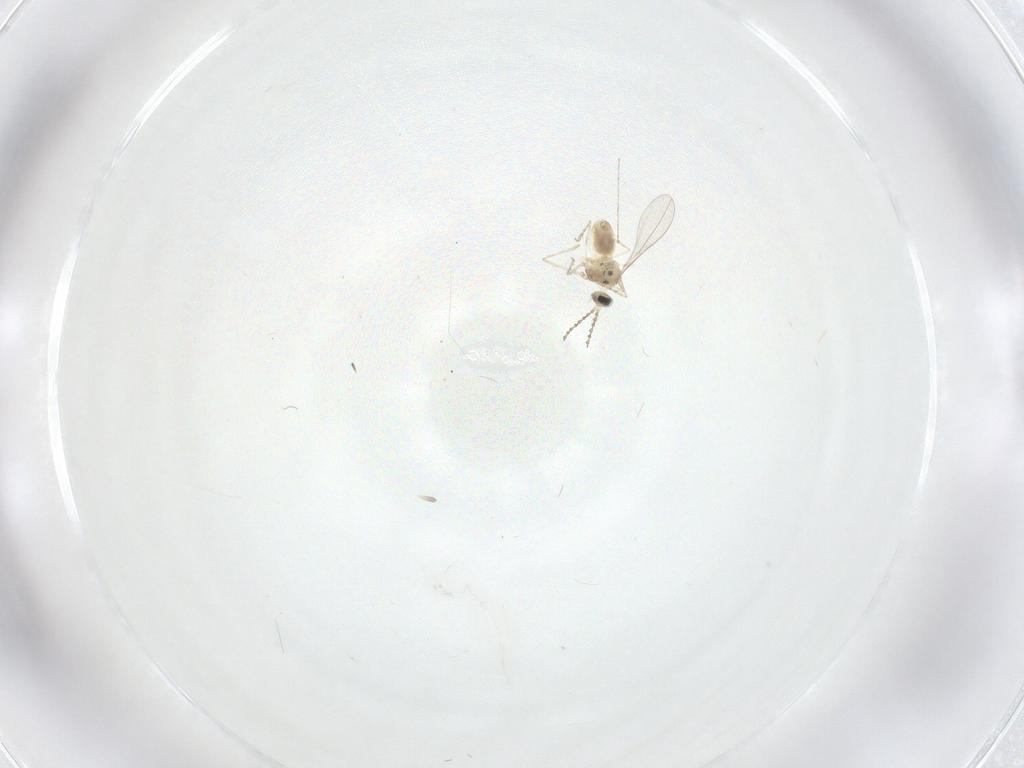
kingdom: Animalia
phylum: Arthropoda
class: Insecta
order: Diptera
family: Cecidomyiidae
